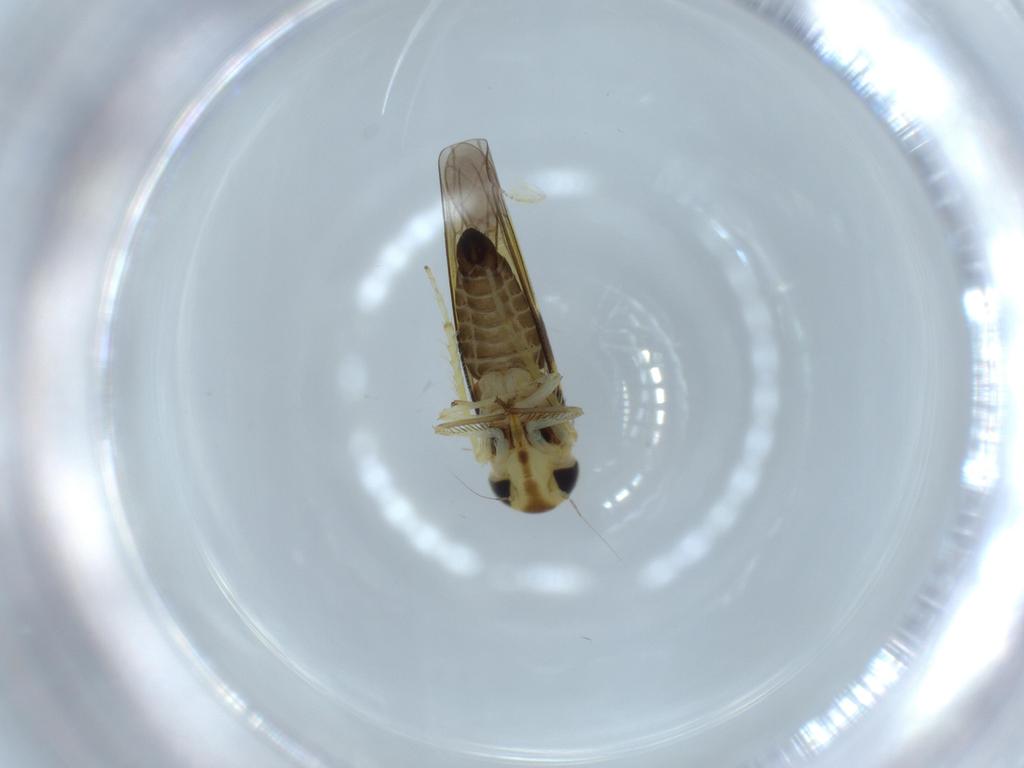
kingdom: Animalia
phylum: Arthropoda
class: Insecta
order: Hemiptera
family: Cicadellidae
